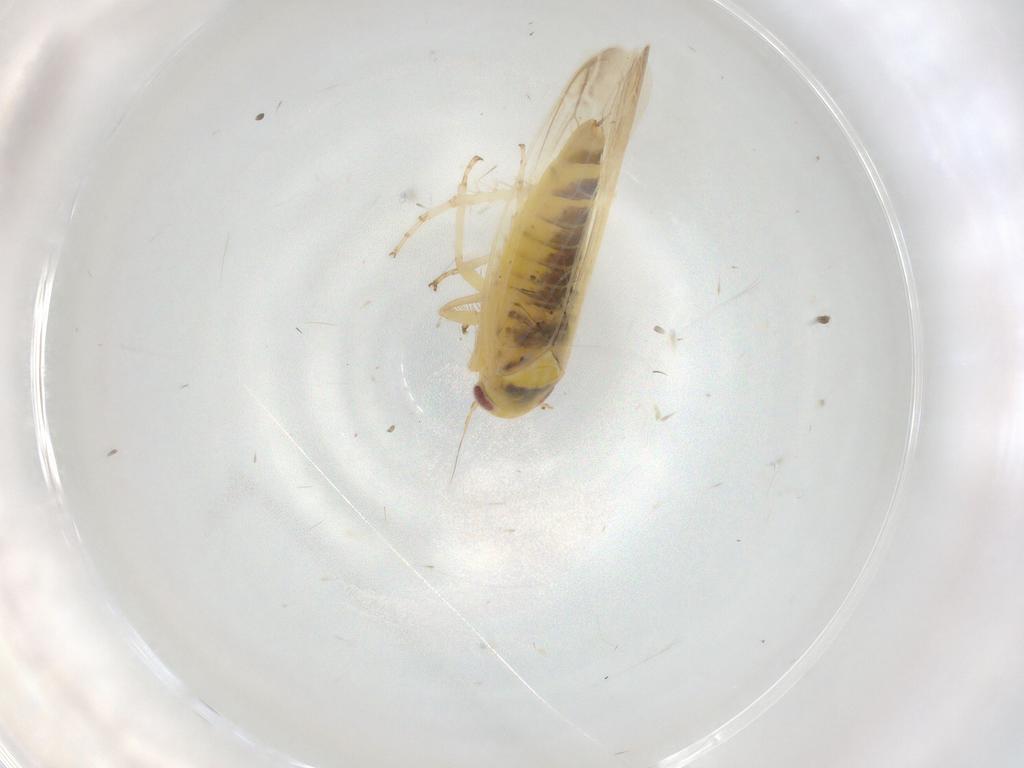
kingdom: Animalia
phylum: Arthropoda
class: Insecta
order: Hemiptera
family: Cicadellidae
